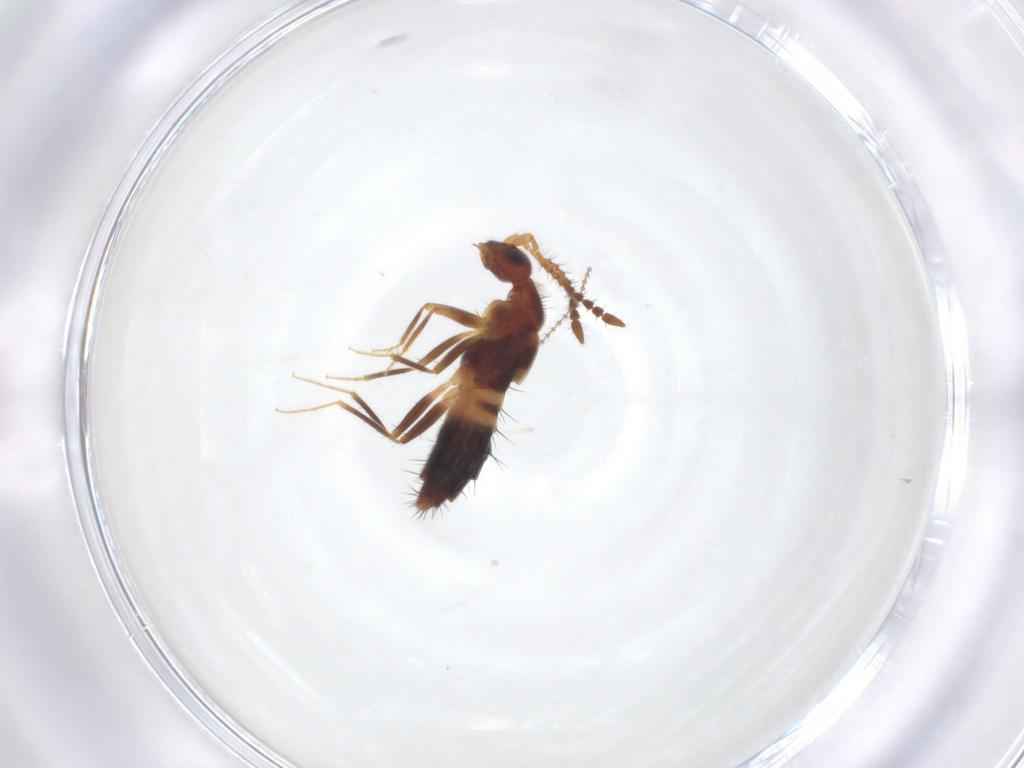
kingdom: Animalia
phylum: Arthropoda
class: Insecta
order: Coleoptera
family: Staphylinidae
